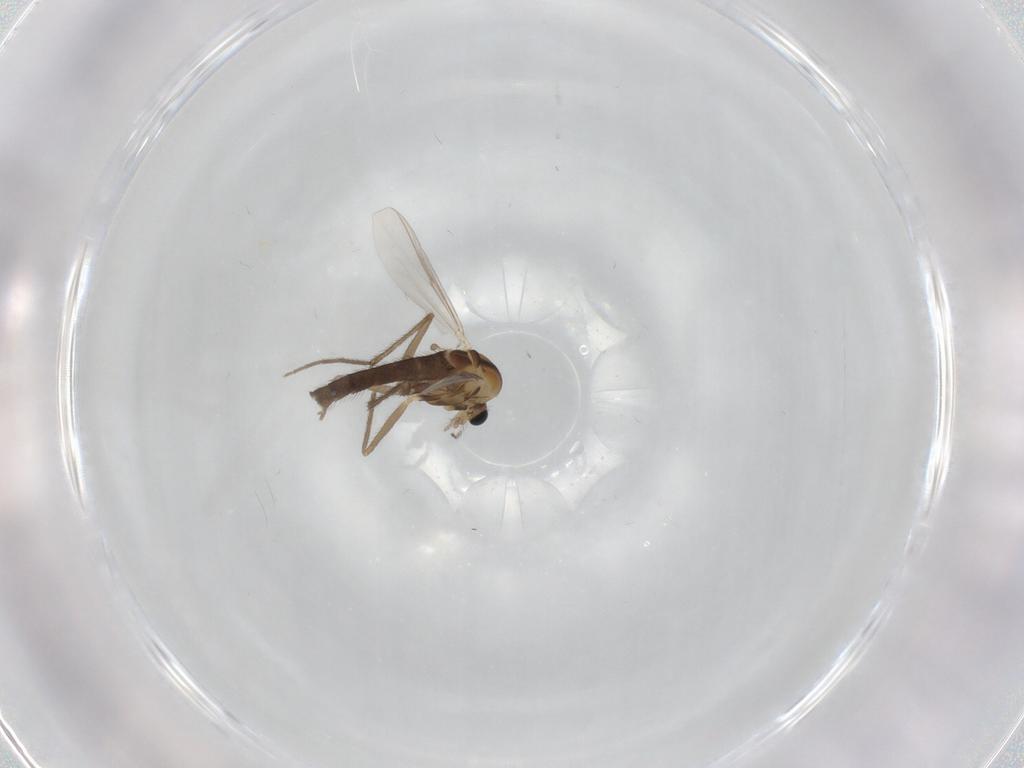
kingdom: Animalia
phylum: Arthropoda
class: Insecta
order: Diptera
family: Chironomidae
